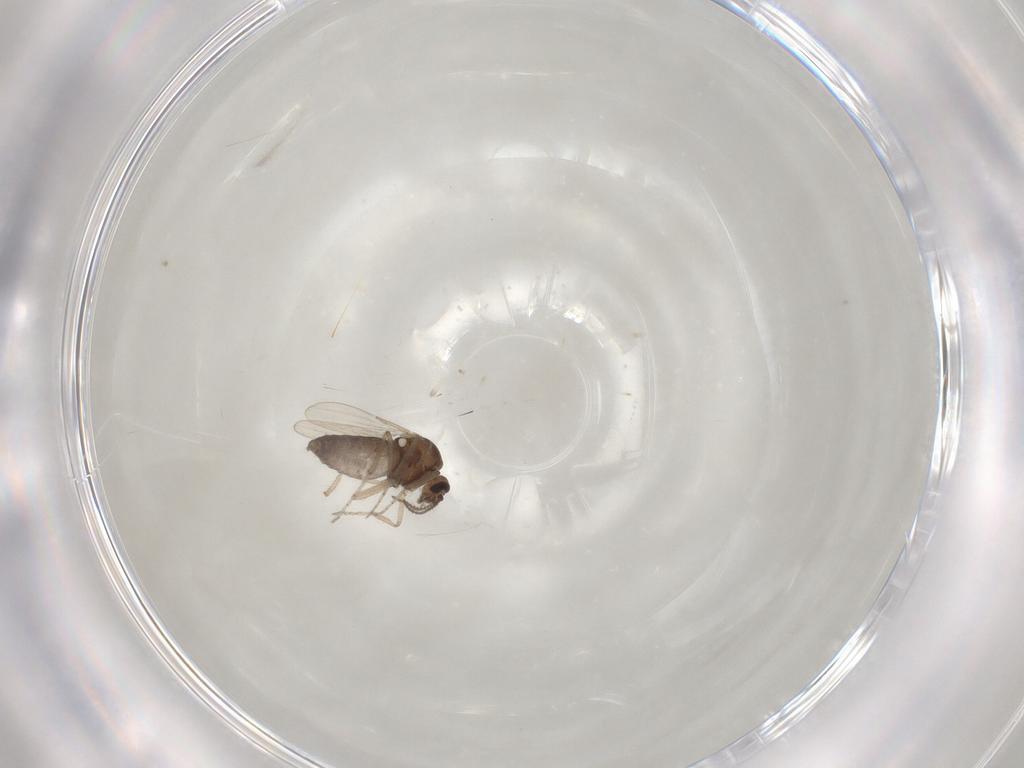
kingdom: Animalia
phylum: Arthropoda
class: Insecta
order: Diptera
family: Ceratopogonidae
